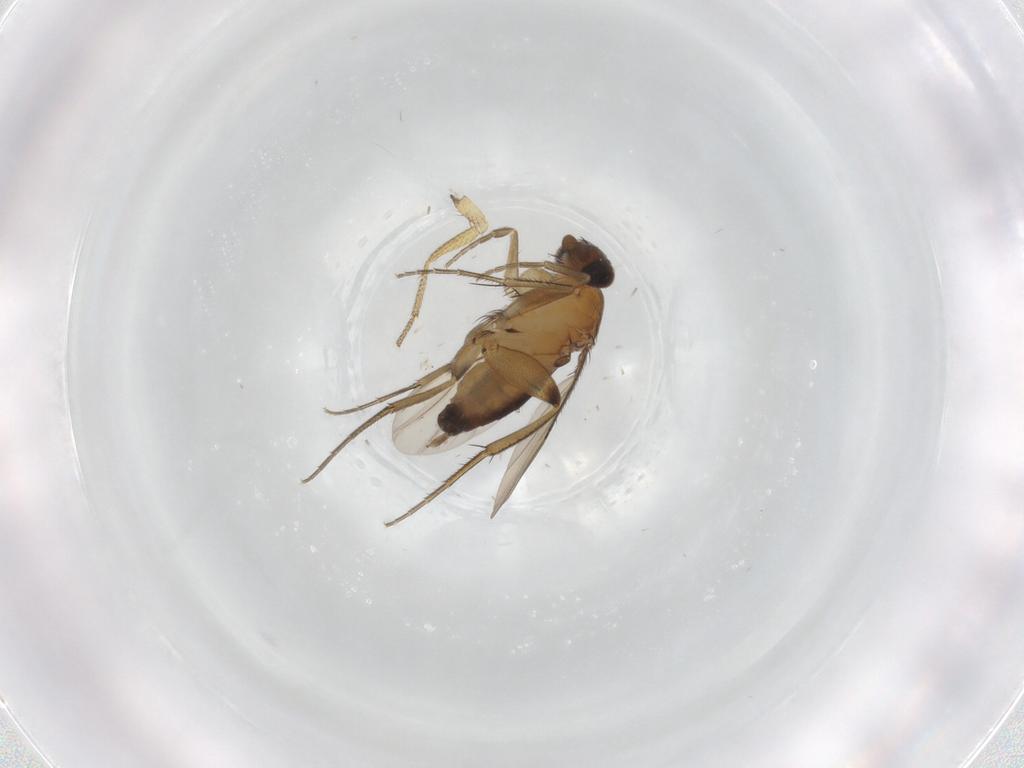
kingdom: Animalia
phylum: Arthropoda
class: Insecta
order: Diptera
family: Phoridae
